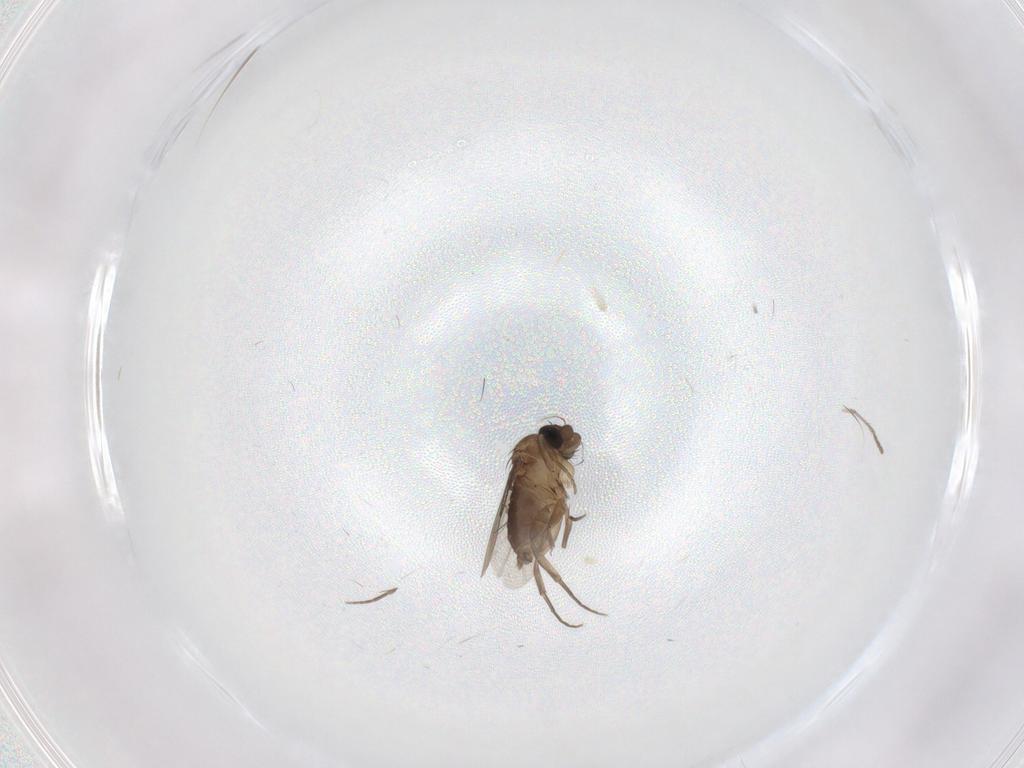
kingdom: Animalia
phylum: Arthropoda
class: Insecta
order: Diptera
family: Phoridae
